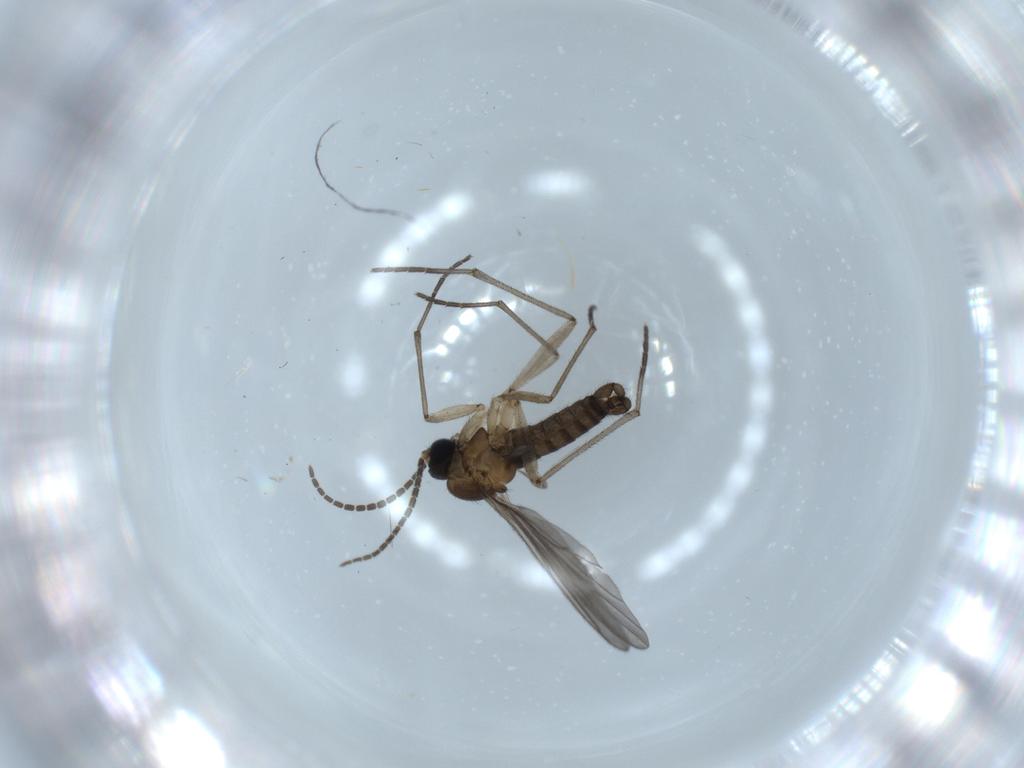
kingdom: Animalia
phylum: Arthropoda
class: Insecta
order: Diptera
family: Sciaridae
